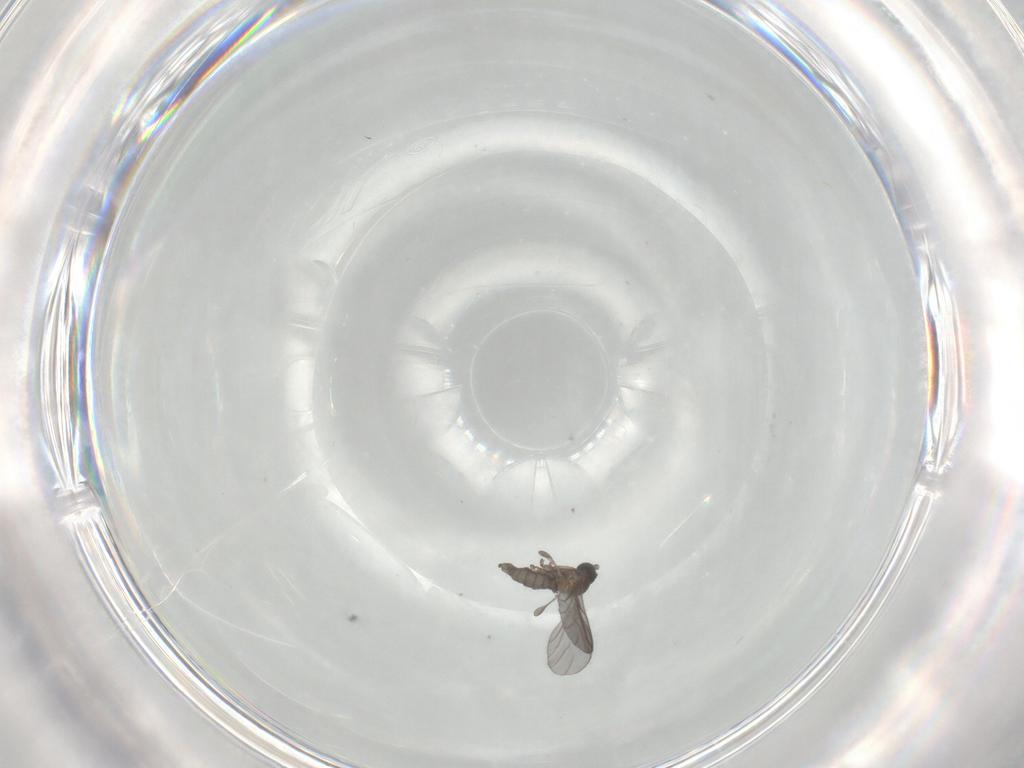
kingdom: Animalia
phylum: Arthropoda
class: Insecta
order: Diptera
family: Sciaridae
